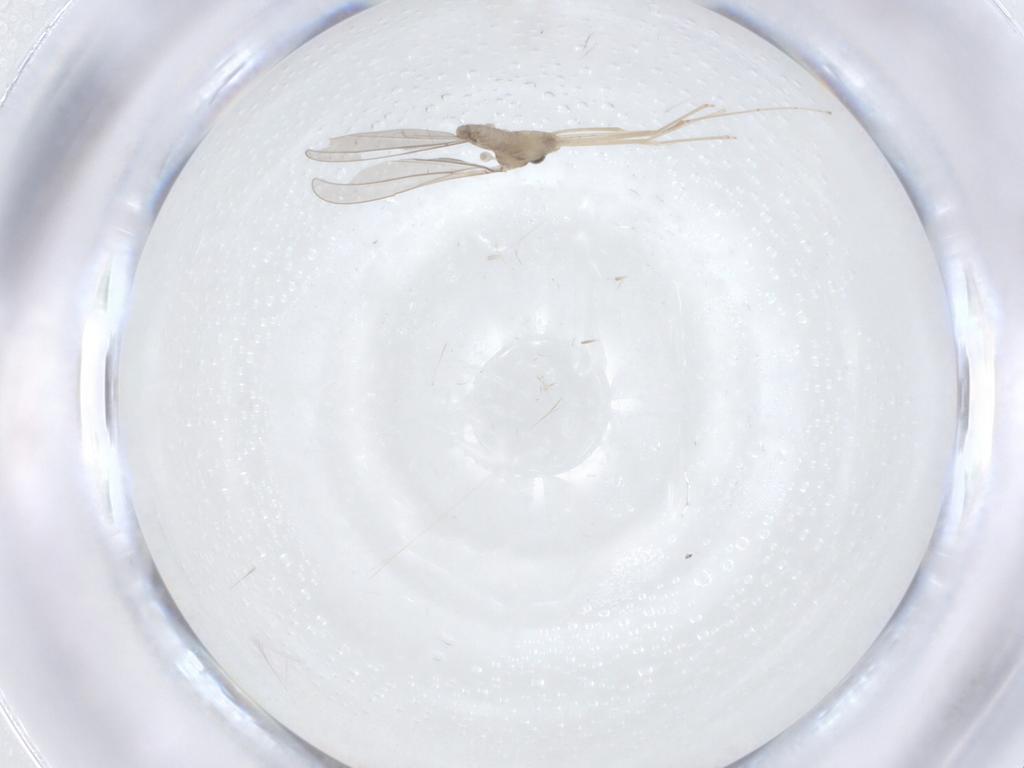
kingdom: Animalia
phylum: Arthropoda
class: Insecta
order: Diptera
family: Cecidomyiidae
